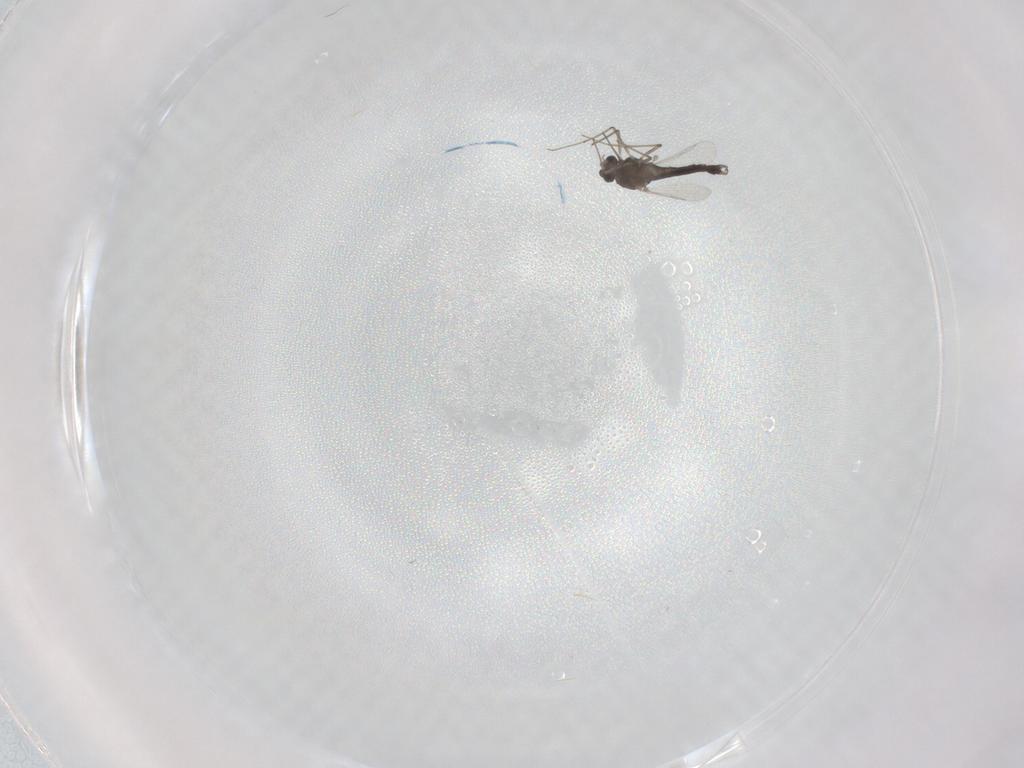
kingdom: Animalia
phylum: Arthropoda
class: Insecta
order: Diptera
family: Chironomidae
